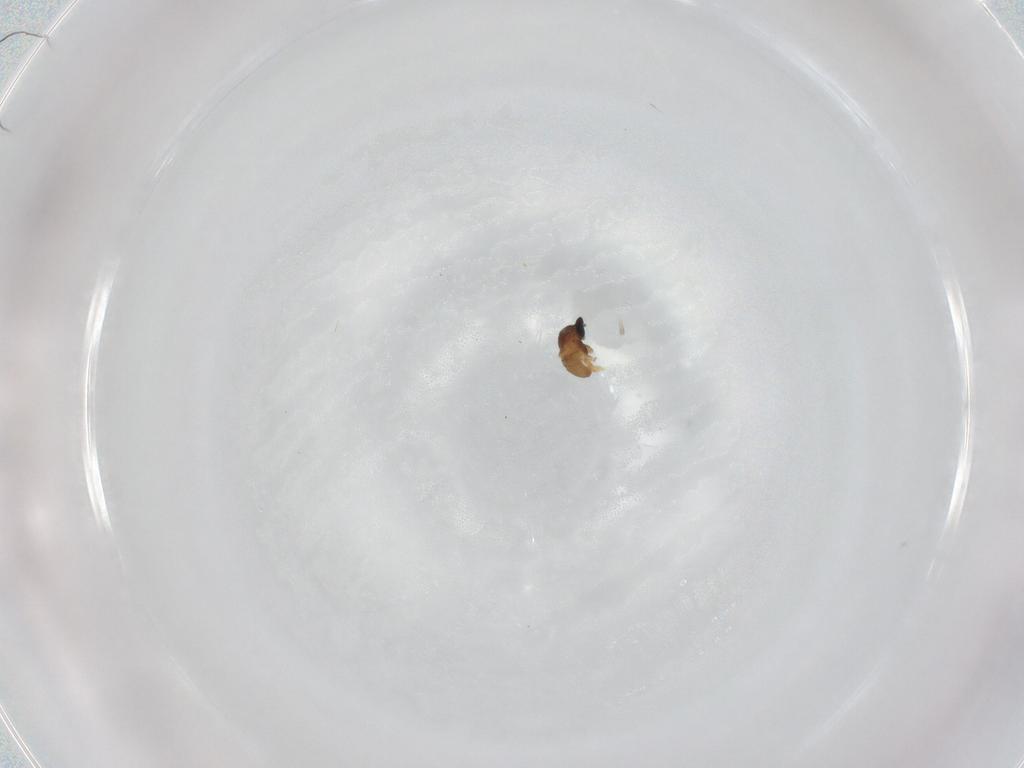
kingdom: Animalia
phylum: Arthropoda
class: Insecta
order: Diptera
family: Cecidomyiidae
